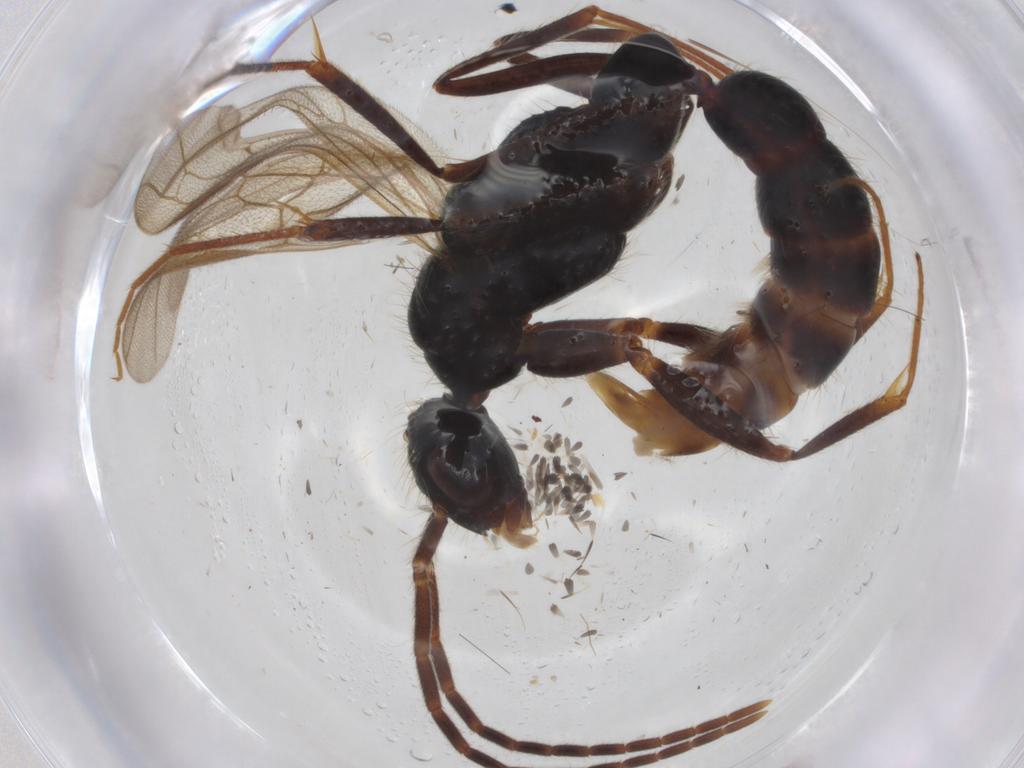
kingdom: Animalia
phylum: Arthropoda
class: Insecta
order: Hymenoptera
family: Formicidae
